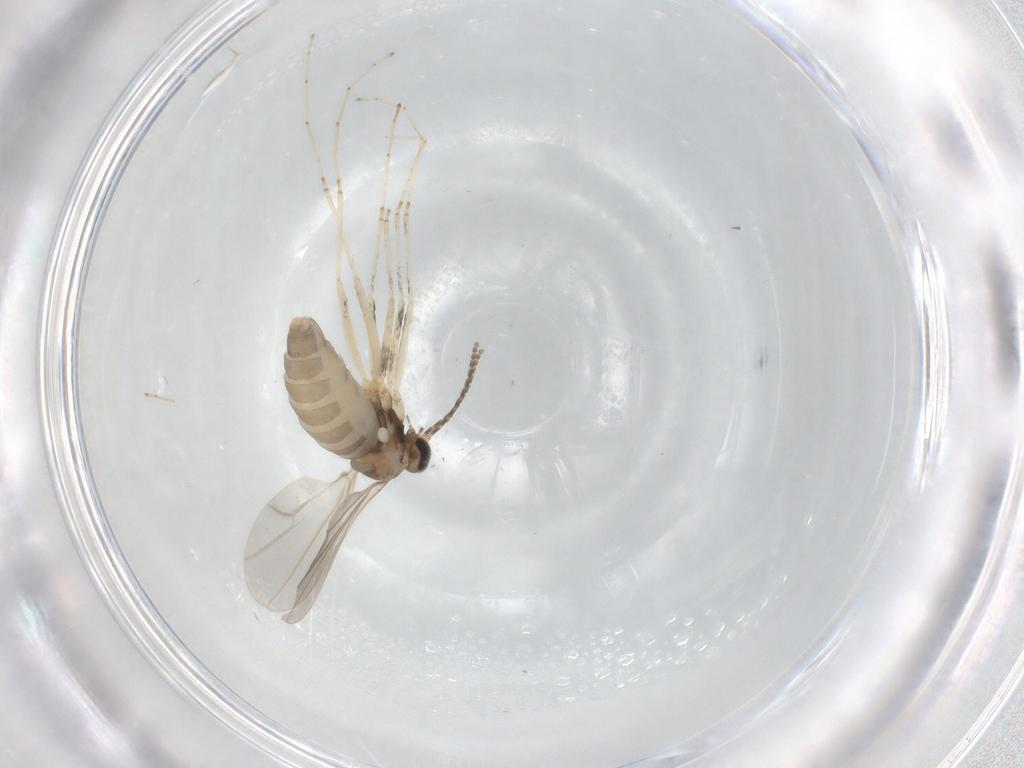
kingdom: Animalia
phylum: Arthropoda
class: Insecta
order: Diptera
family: Cecidomyiidae
